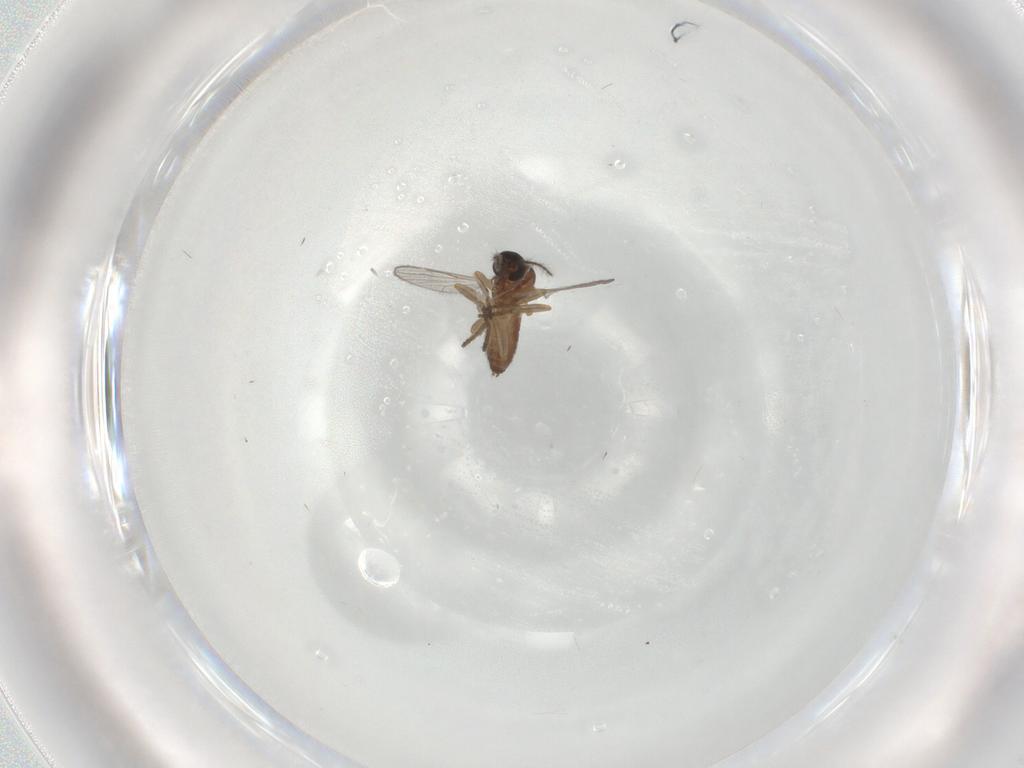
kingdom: Animalia
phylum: Arthropoda
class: Insecta
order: Diptera
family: Ceratopogonidae
